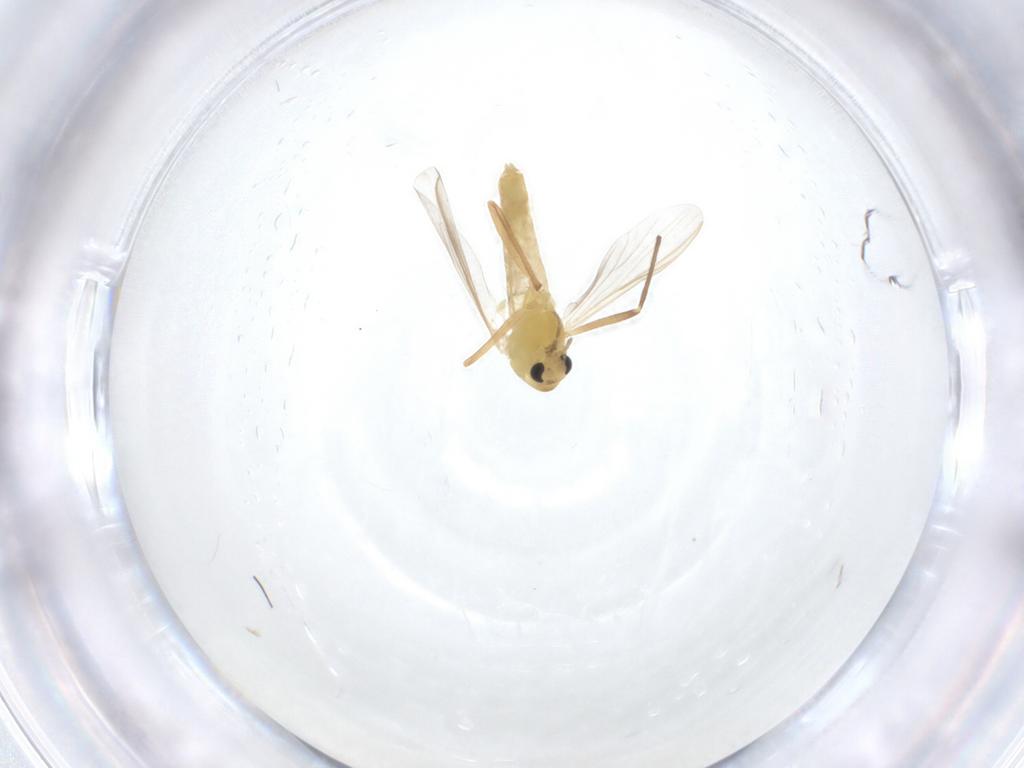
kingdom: Animalia
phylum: Arthropoda
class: Insecta
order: Diptera
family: Chironomidae
